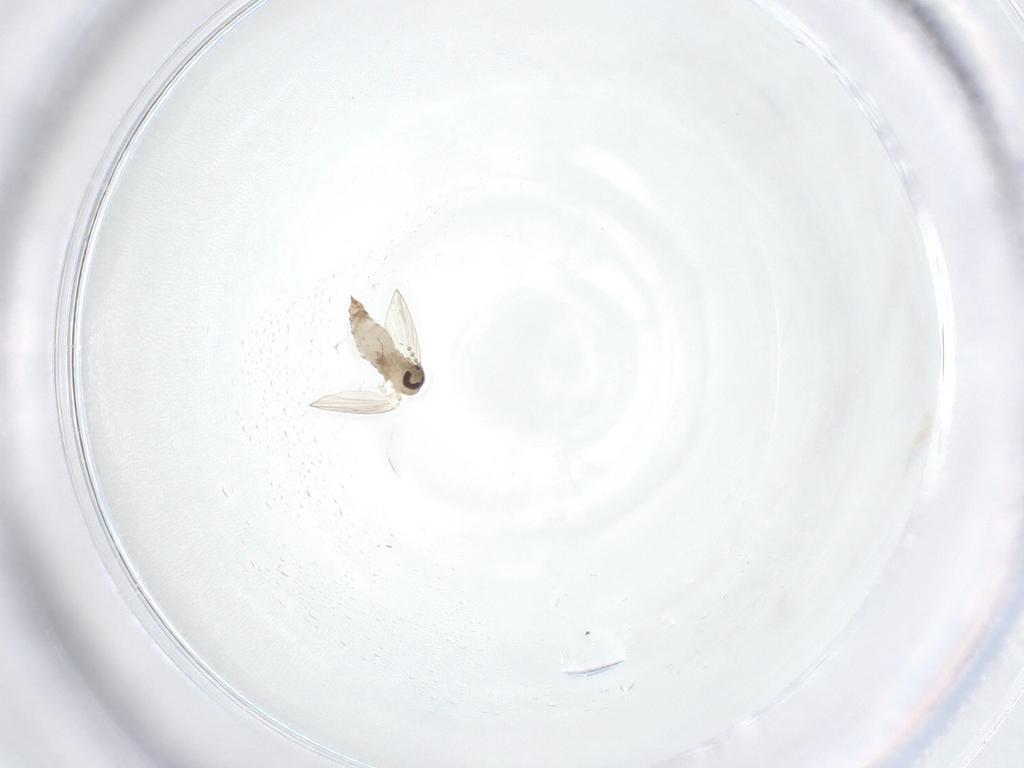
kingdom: Animalia
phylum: Arthropoda
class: Insecta
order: Diptera
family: Psychodidae
